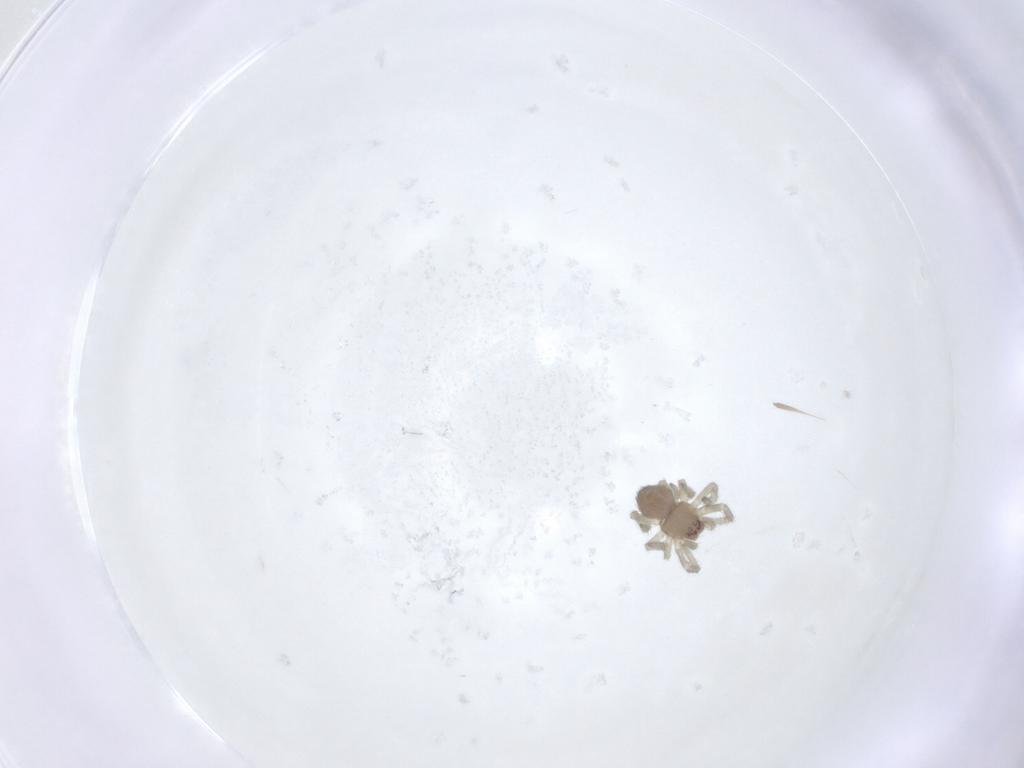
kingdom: Animalia
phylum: Arthropoda
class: Arachnida
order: Araneae
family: Dictynidae
